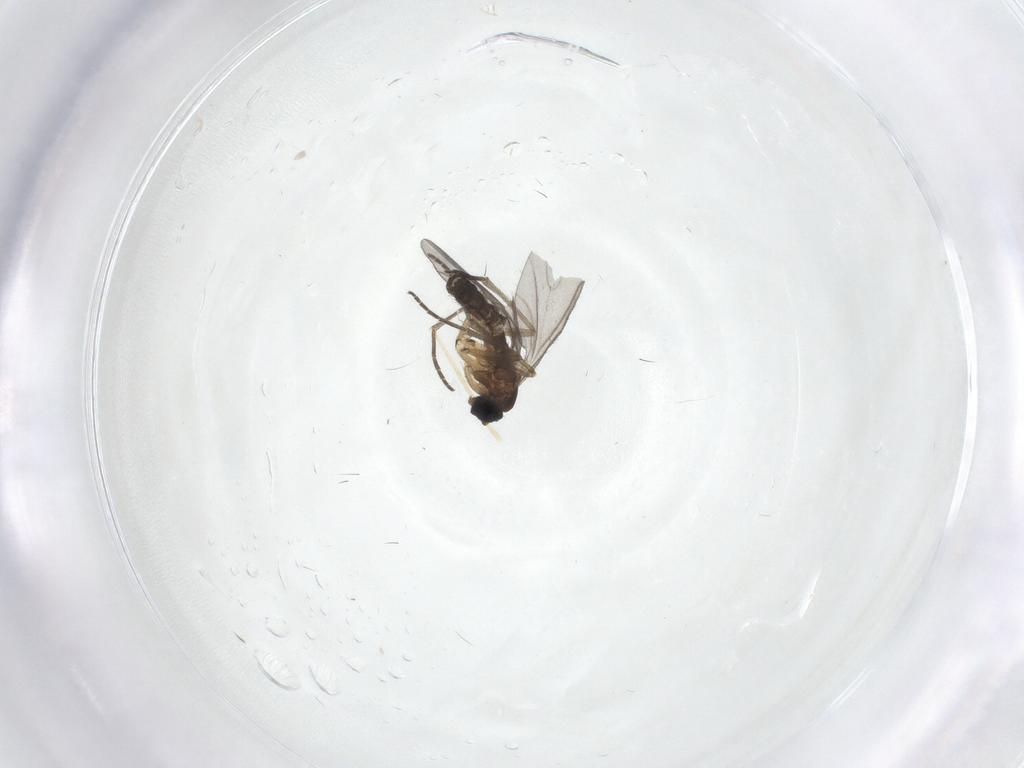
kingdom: Animalia
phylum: Arthropoda
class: Insecta
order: Diptera
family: Sciaridae
